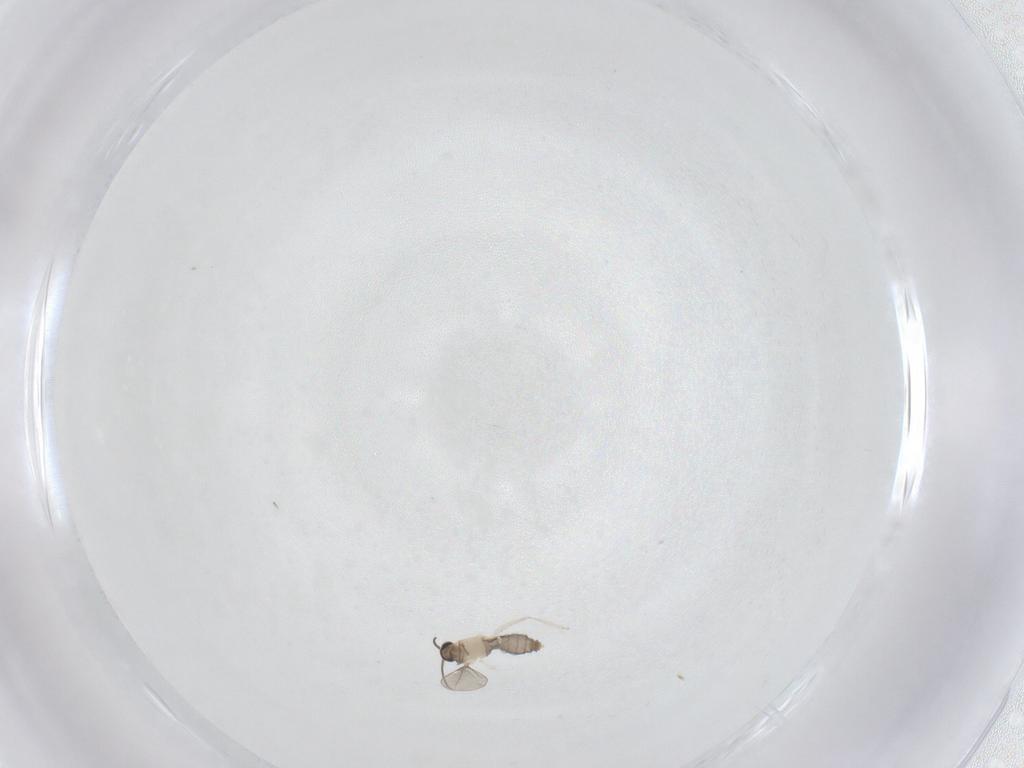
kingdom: Animalia
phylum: Arthropoda
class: Insecta
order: Diptera
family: Cecidomyiidae
